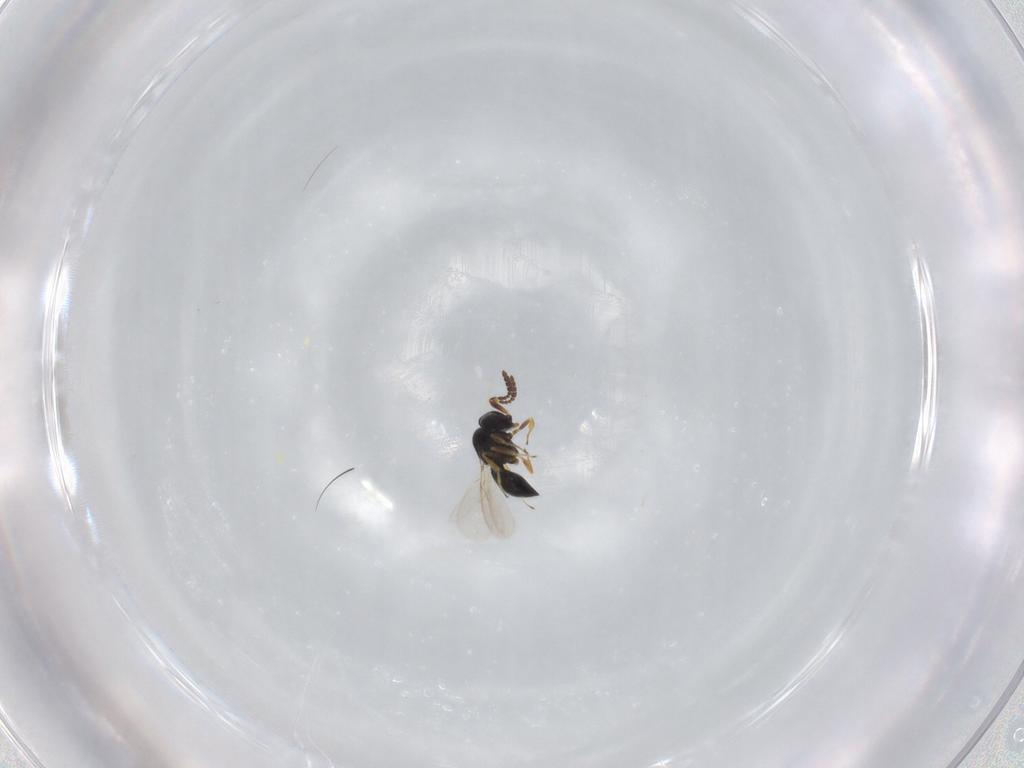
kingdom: Animalia
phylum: Arthropoda
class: Insecta
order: Hymenoptera
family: Scelionidae
